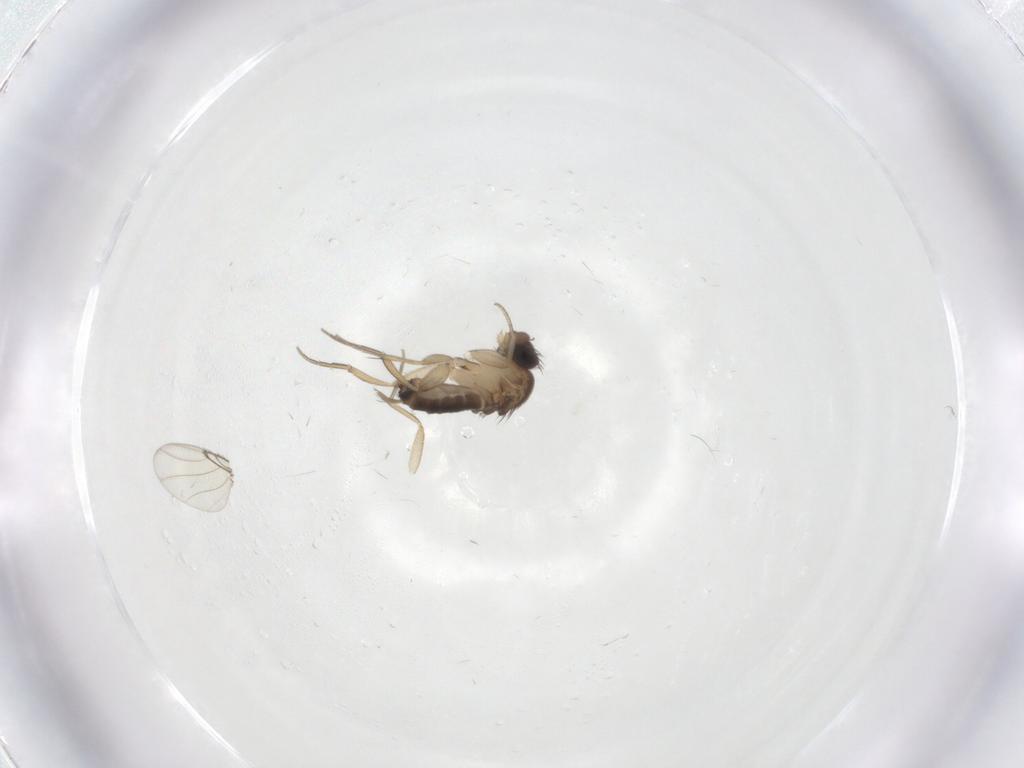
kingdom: Animalia
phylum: Arthropoda
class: Insecta
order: Diptera
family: Phoridae
